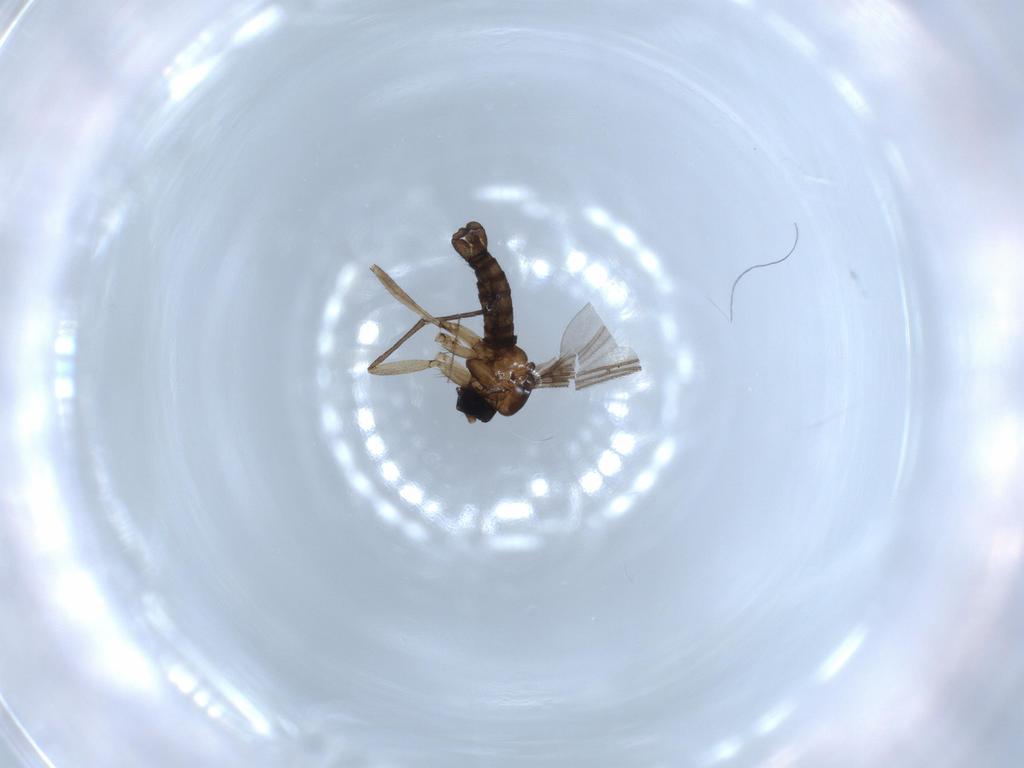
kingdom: Animalia
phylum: Arthropoda
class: Insecta
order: Diptera
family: Sciaridae
